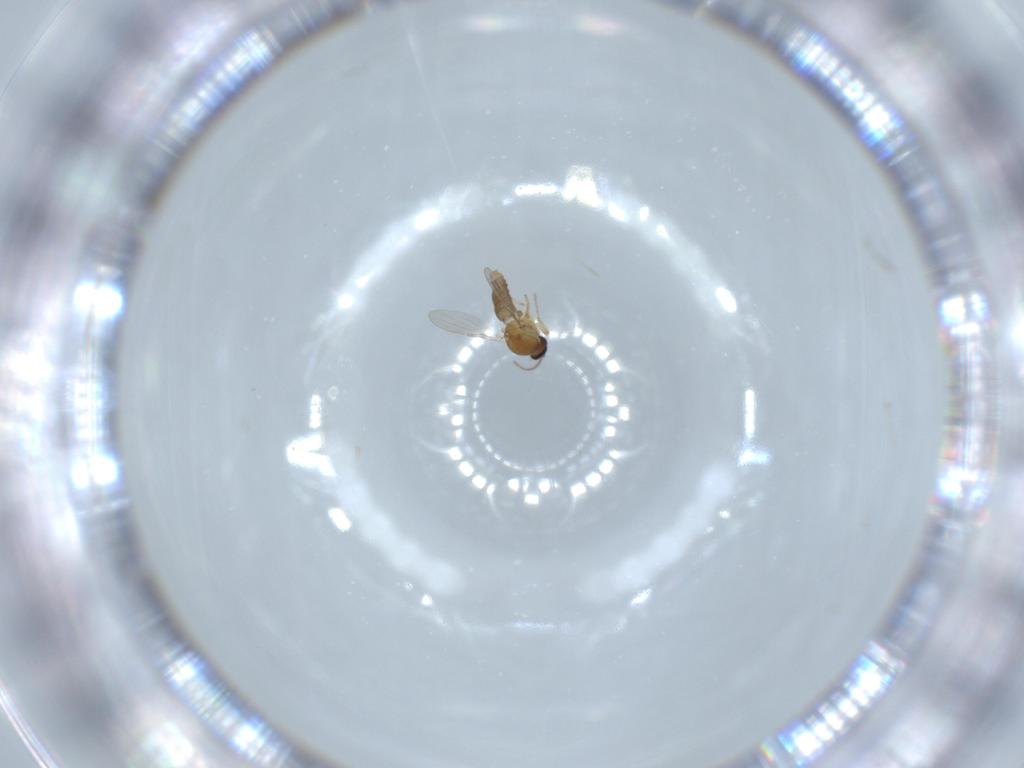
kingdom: Animalia
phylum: Arthropoda
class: Insecta
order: Diptera
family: Ceratopogonidae
